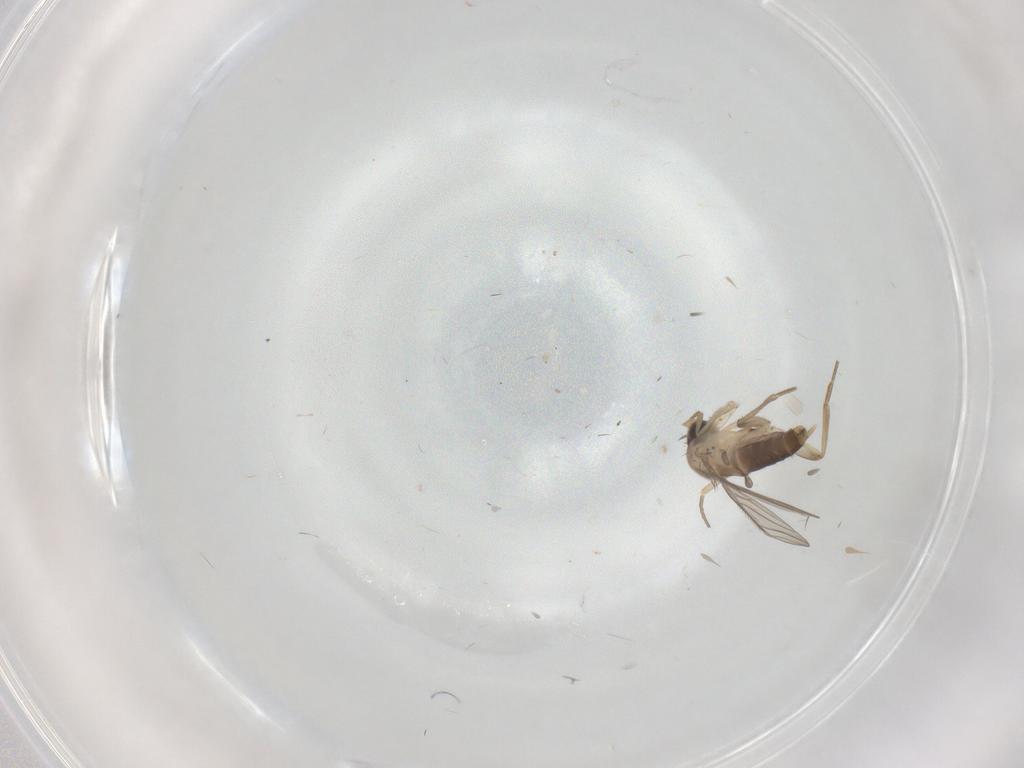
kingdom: Animalia
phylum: Arthropoda
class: Insecta
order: Diptera
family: Phoridae
